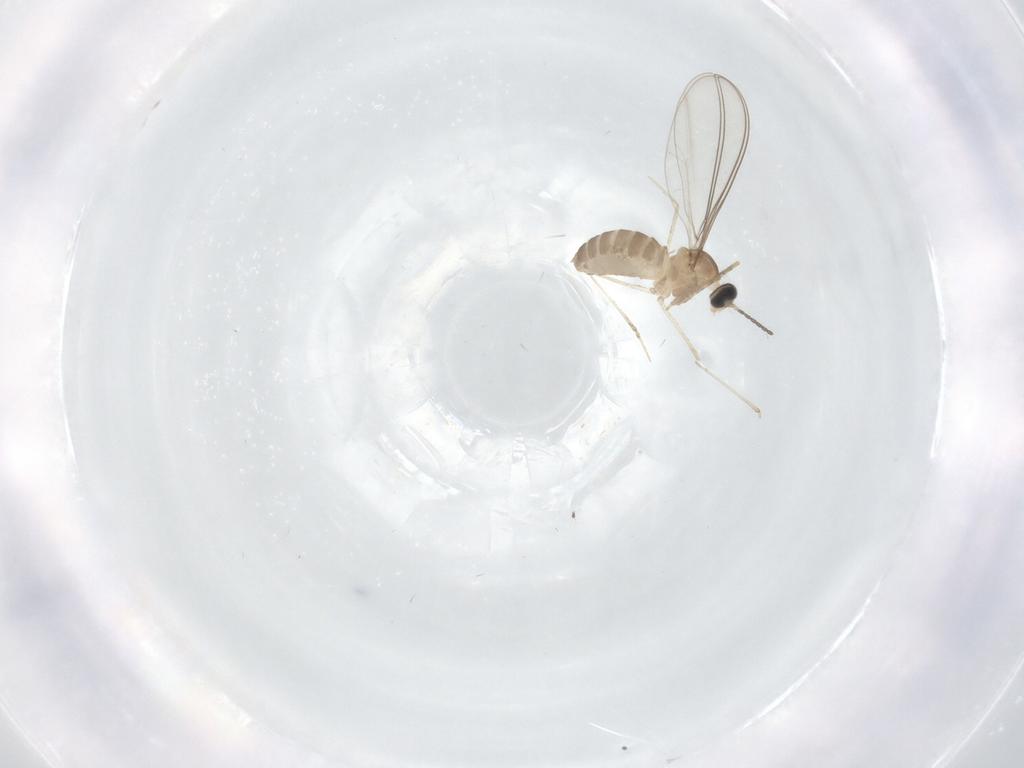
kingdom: Animalia
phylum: Arthropoda
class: Insecta
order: Diptera
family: Cecidomyiidae
